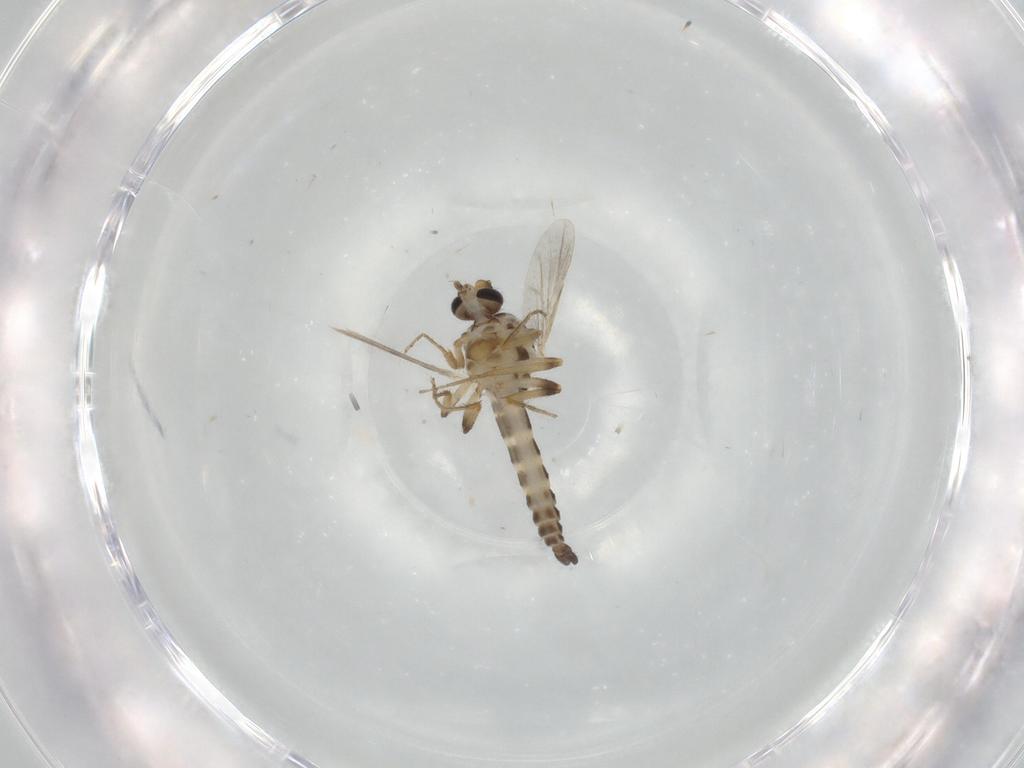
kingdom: Animalia
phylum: Arthropoda
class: Insecta
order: Diptera
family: Ceratopogonidae
